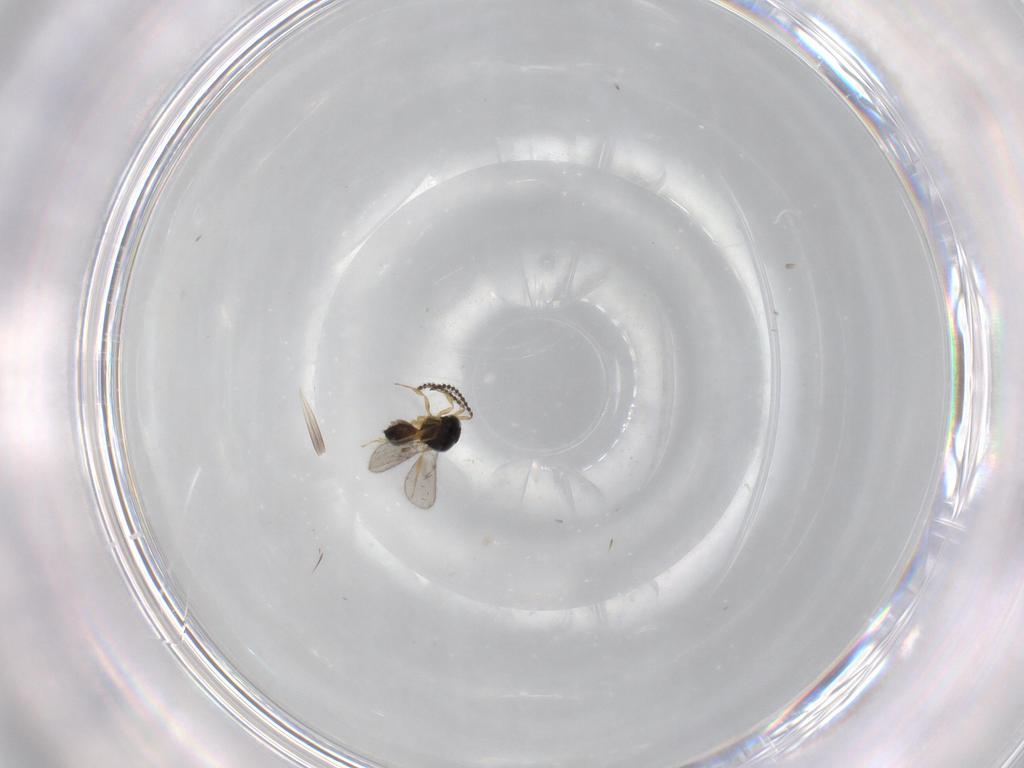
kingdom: Animalia
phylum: Arthropoda
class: Insecta
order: Hymenoptera
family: Scelionidae
